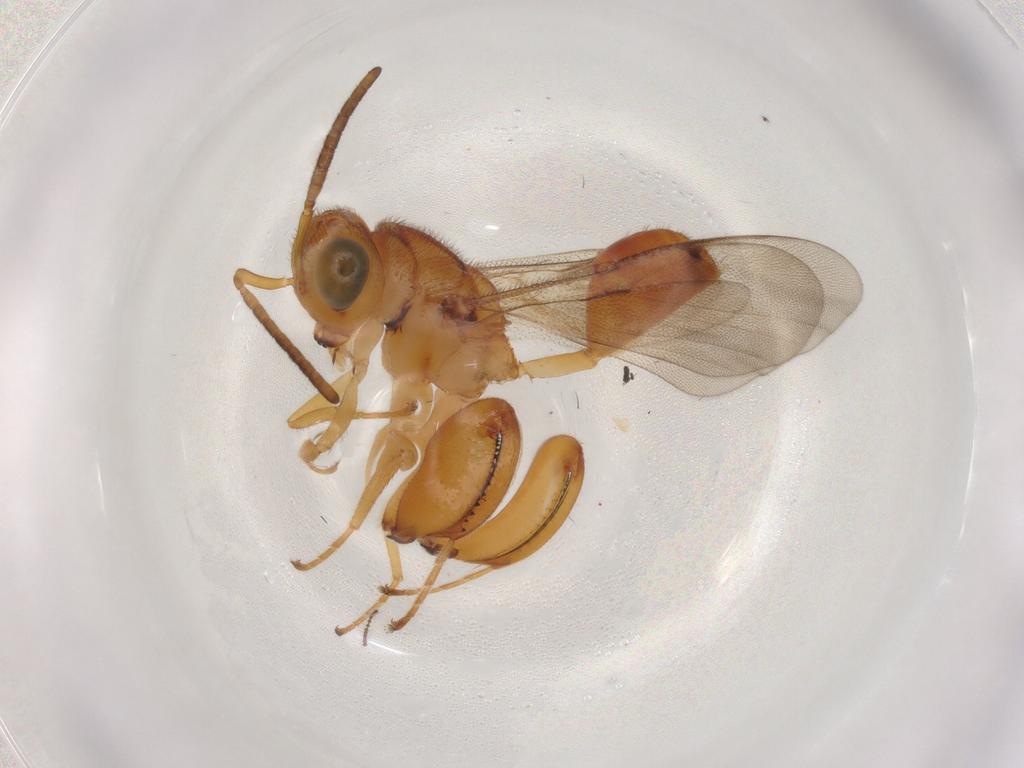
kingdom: Animalia
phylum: Arthropoda
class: Insecta
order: Hymenoptera
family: Chalcididae
